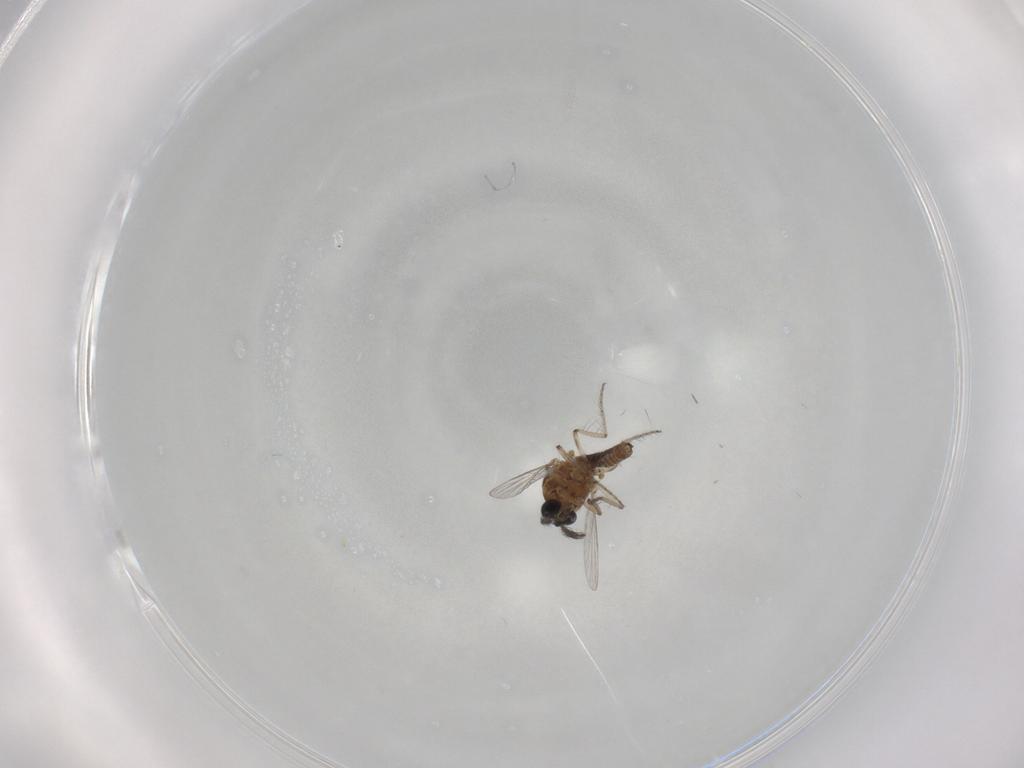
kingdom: Animalia
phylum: Arthropoda
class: Insecta
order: Diptera
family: Ceratopogonidae
